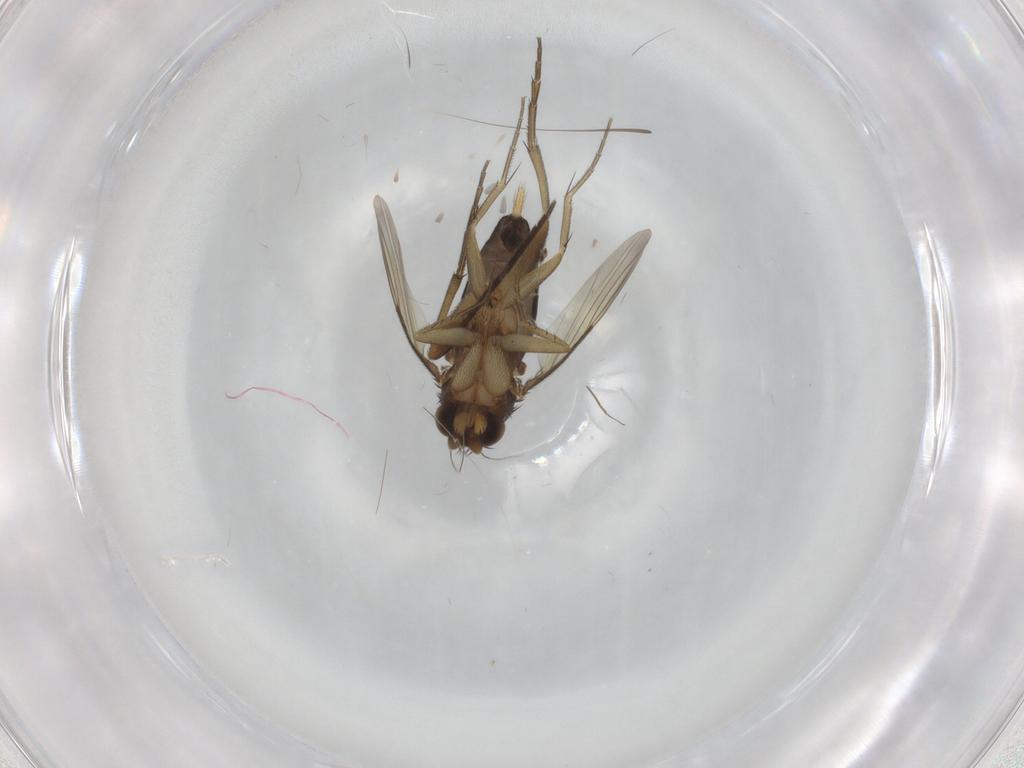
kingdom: Animalia
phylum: Arthropoda
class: Insecta
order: Diptera
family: Phoridae
